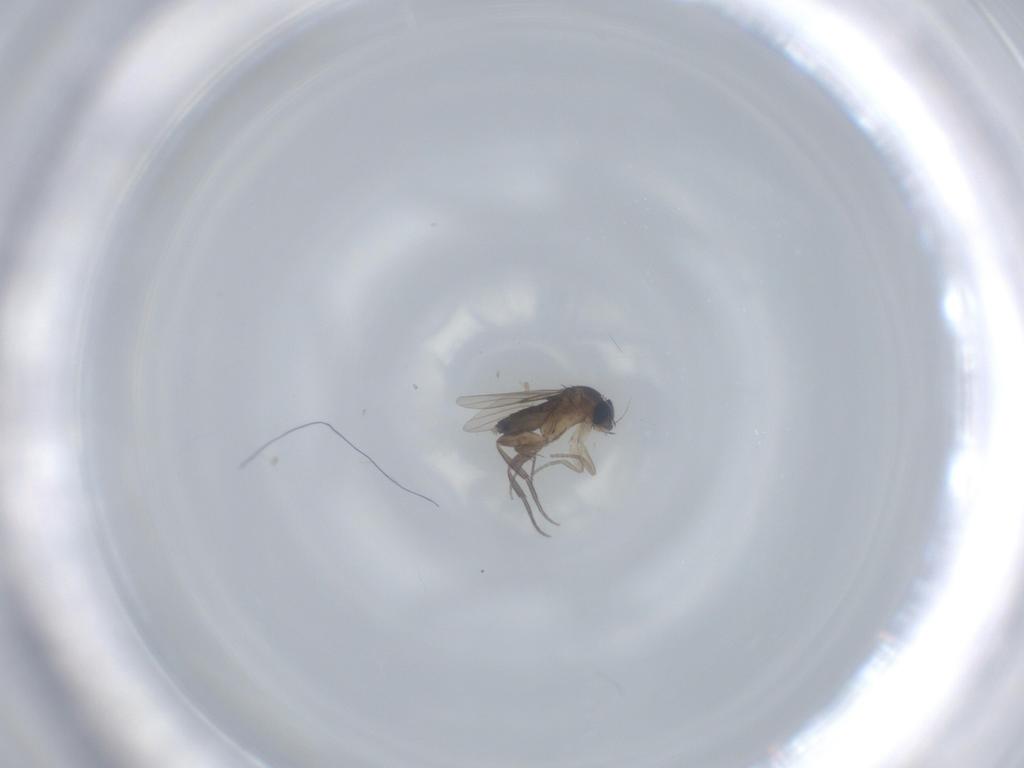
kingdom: Animalia
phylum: Arthropoda
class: Insecta
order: Diptera
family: Phoridae
